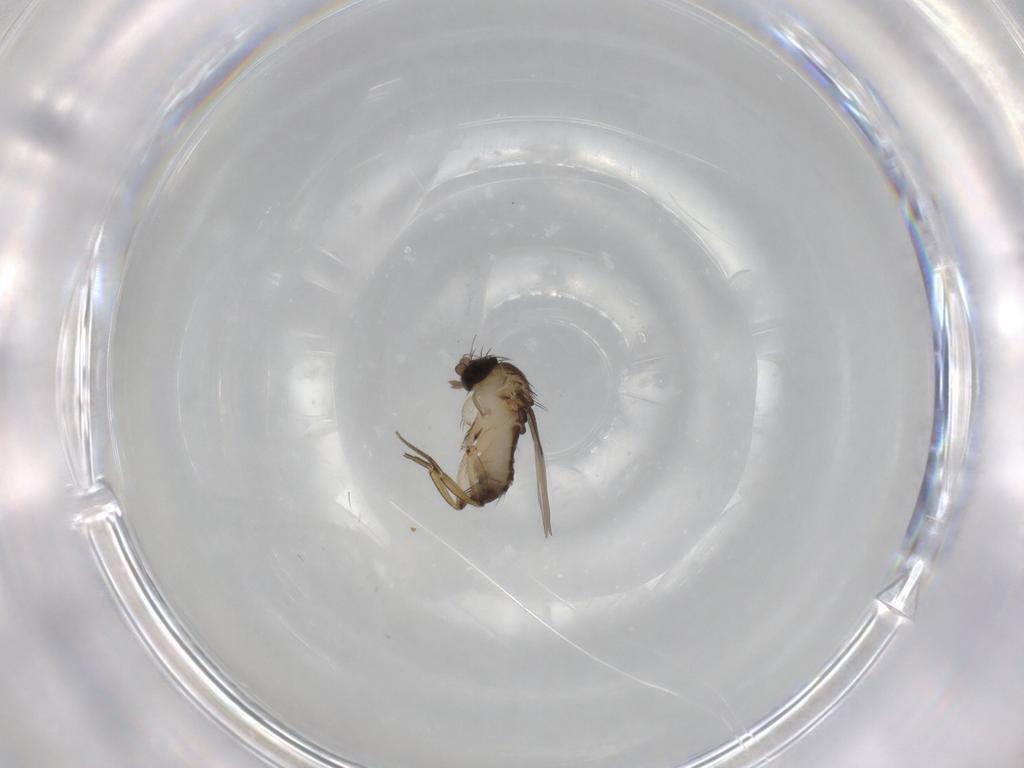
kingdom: Animalia
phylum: Arthropoda
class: Insecta
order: Diptera
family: Phoridae
